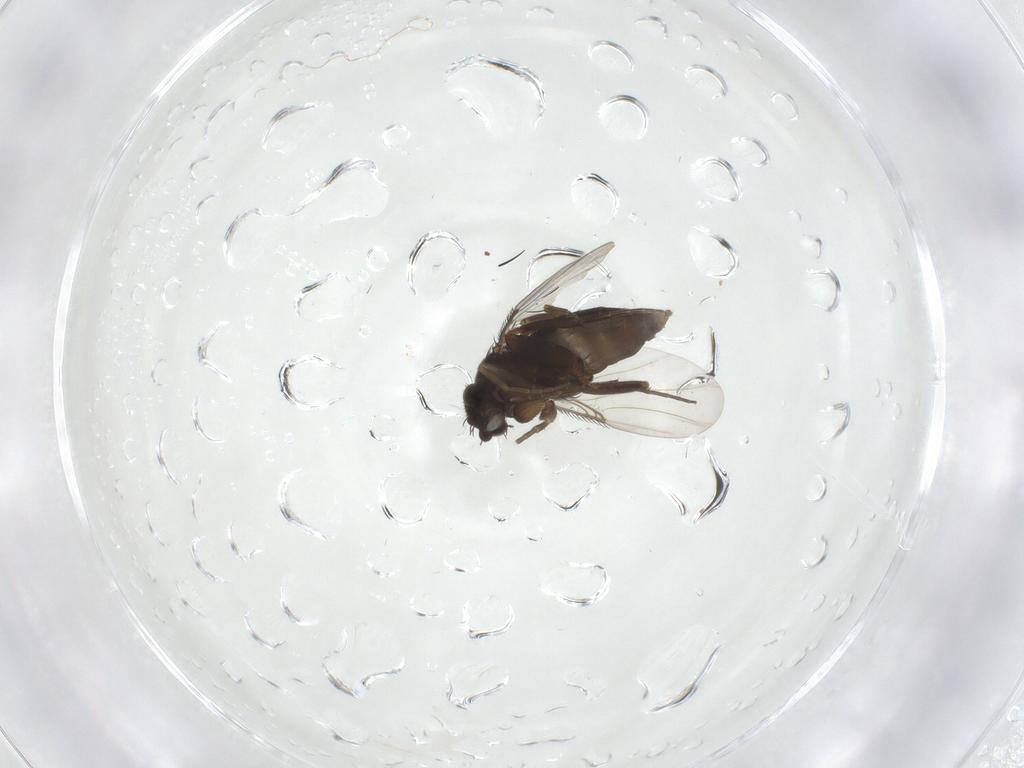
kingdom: Animalia
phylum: Arthropoda
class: Insecta
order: Diptera
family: Anthomyiidae
